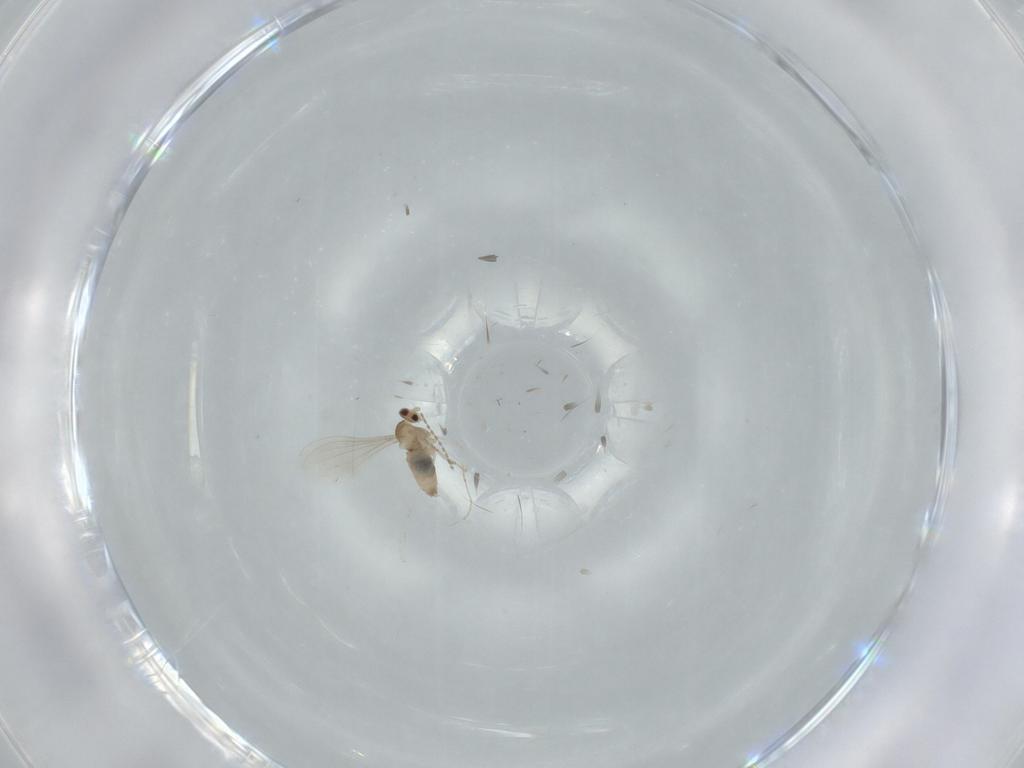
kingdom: Animalia
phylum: Arthropoda
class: Insecta
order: Diptera
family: Cecidomyiidae
